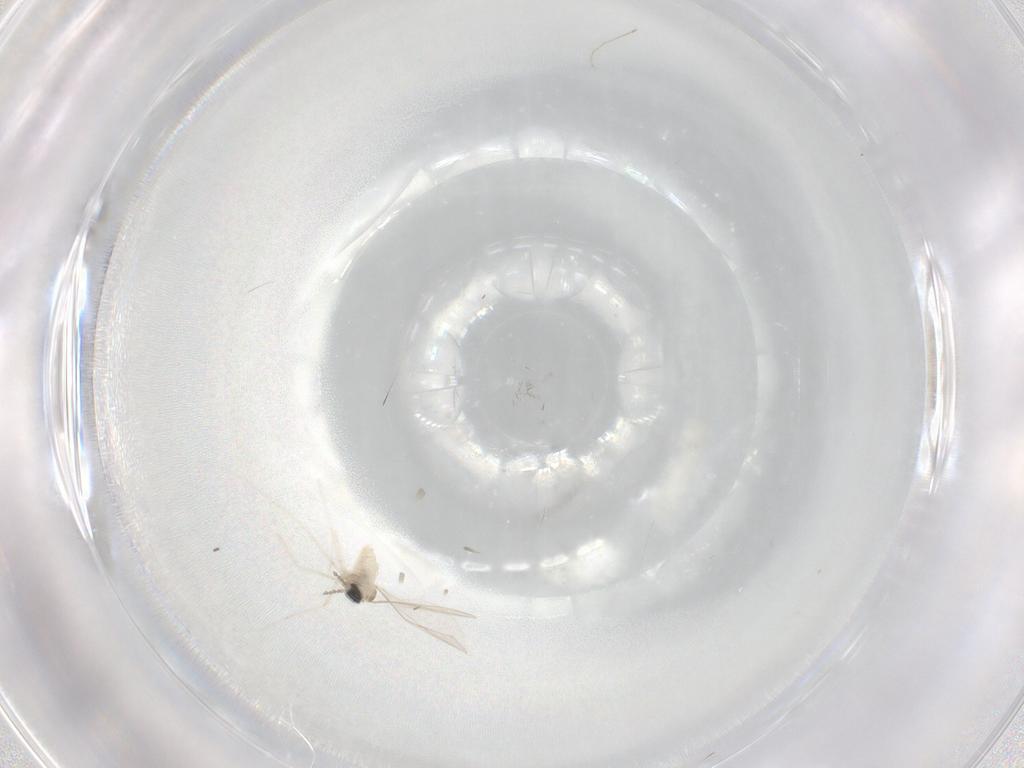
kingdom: Animalia
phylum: Arthropoda
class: Insecta
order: Diptera
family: Cecidomyiidae
